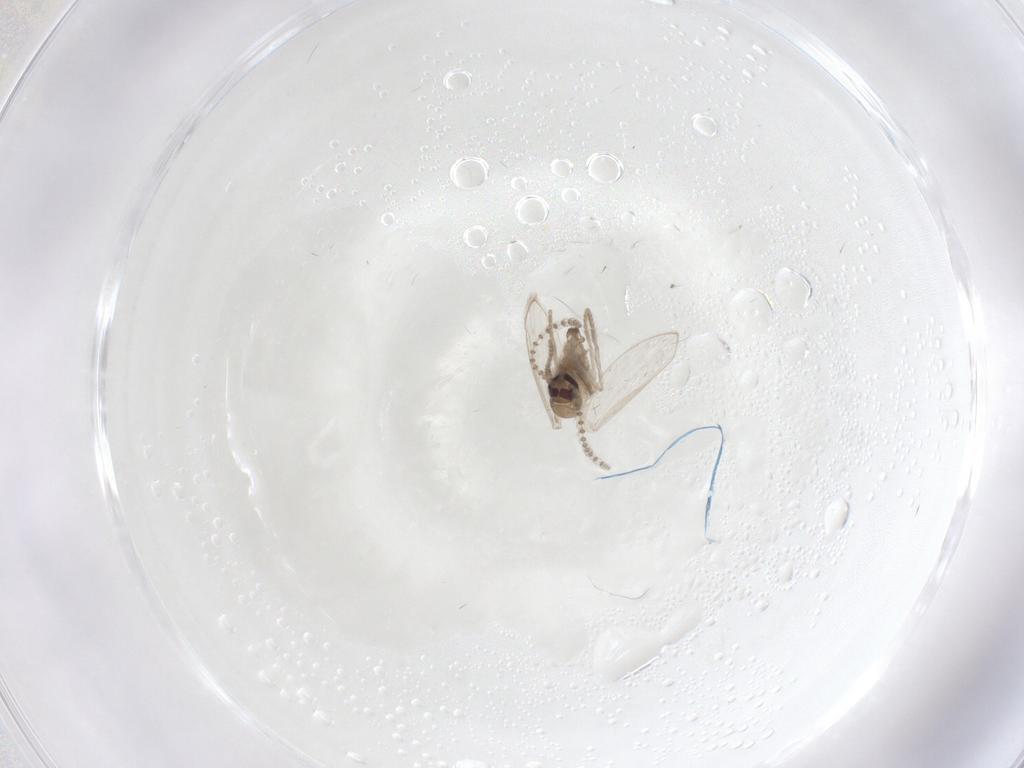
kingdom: Animalia
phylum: Arthropoda
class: Insecta
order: Diptera
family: Psychodidae
